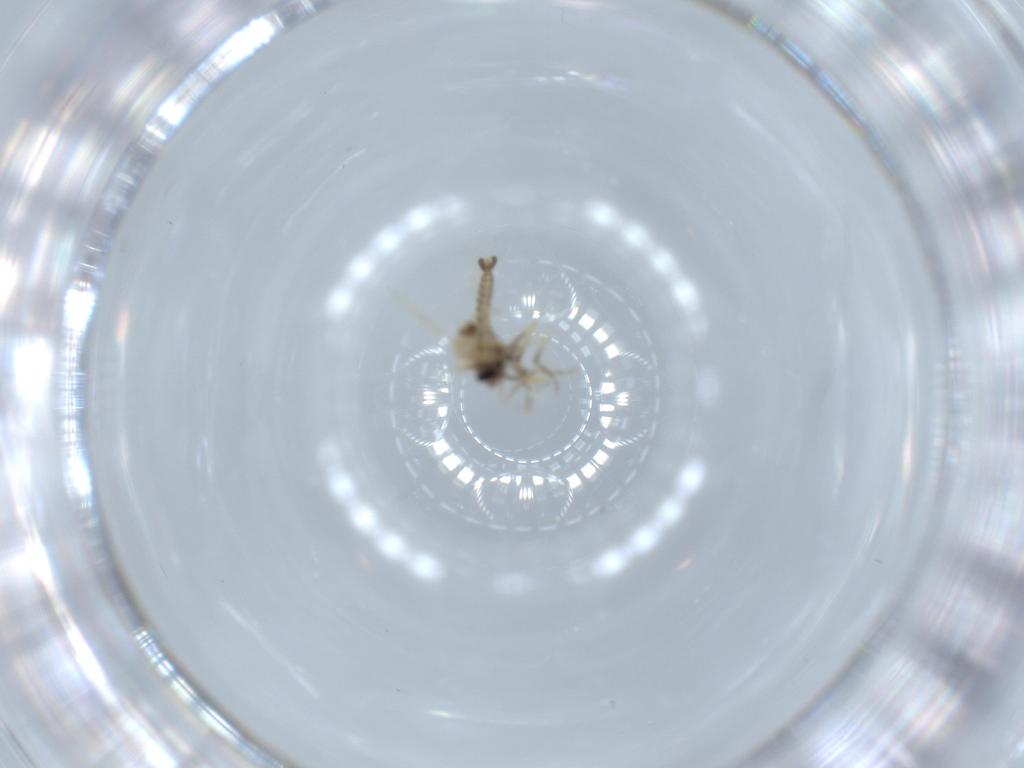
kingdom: Animalia
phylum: Arthropoda
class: Insecta
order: Diptera
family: Ceratopogonidae
